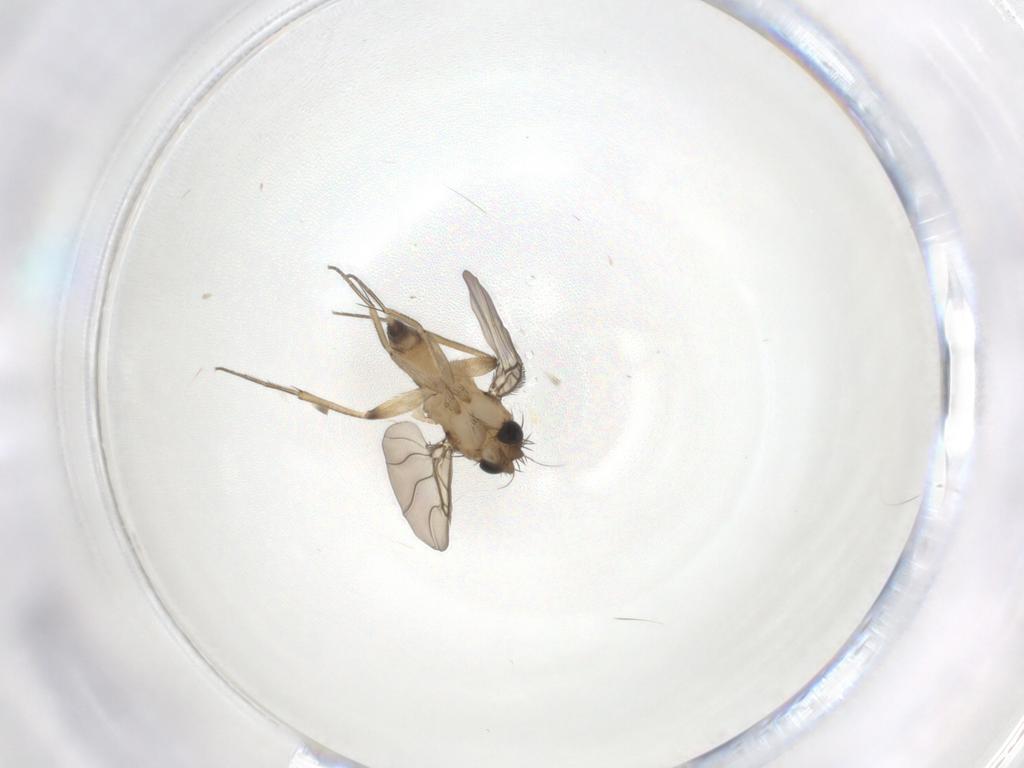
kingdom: Animalia
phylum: Arthropoda
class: Insecta
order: Diptera
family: Phoridae
